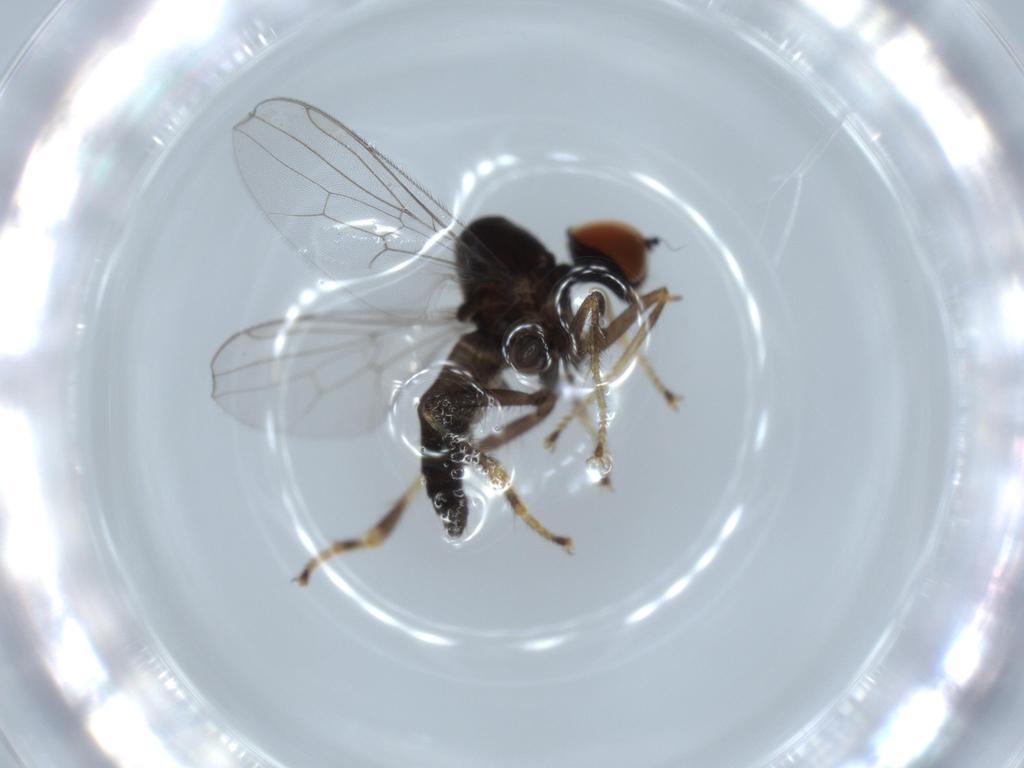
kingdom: Animalia
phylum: Arthropoda
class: Insecta
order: Diptera
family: Hybotidae
